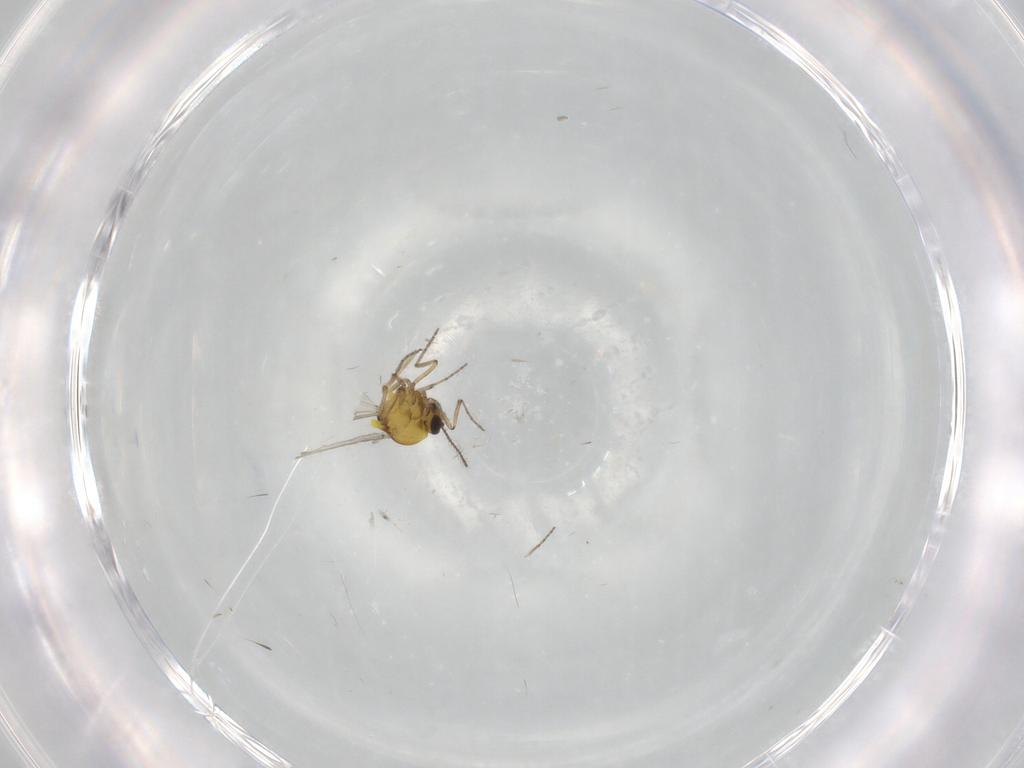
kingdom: Animalia
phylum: Arthropoda
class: Insecta
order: Diptera
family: Ceratopogonidae
